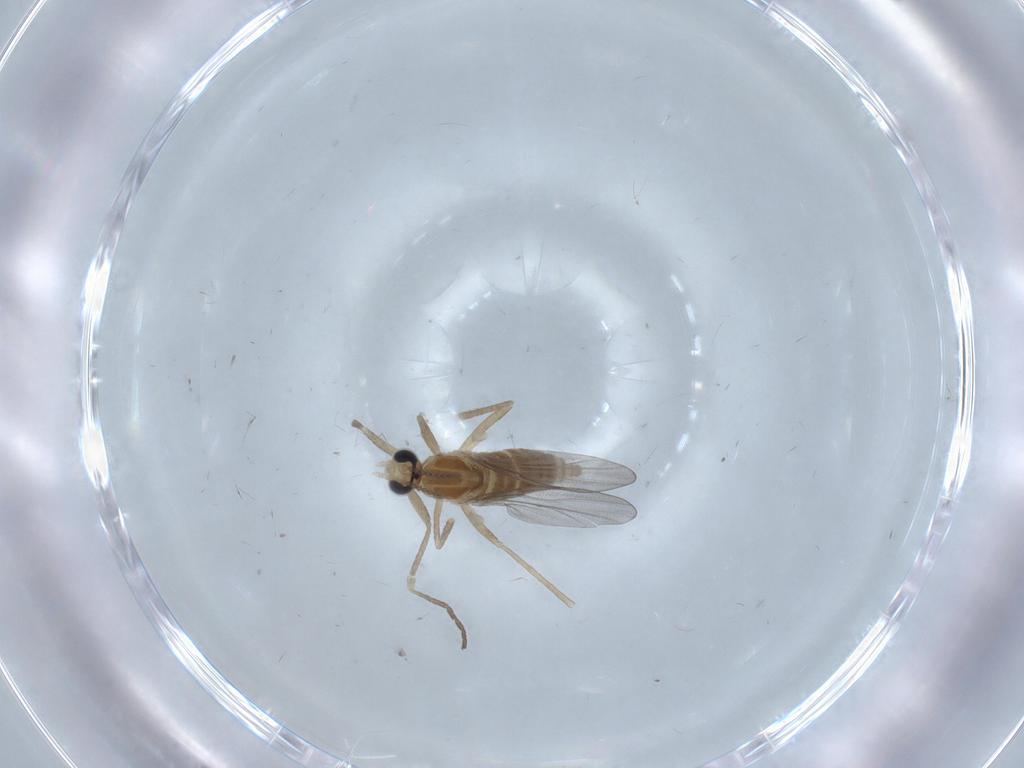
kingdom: Animalia
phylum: Arthropoda
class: Insecta
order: Diptera
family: Cecidomyiidae
